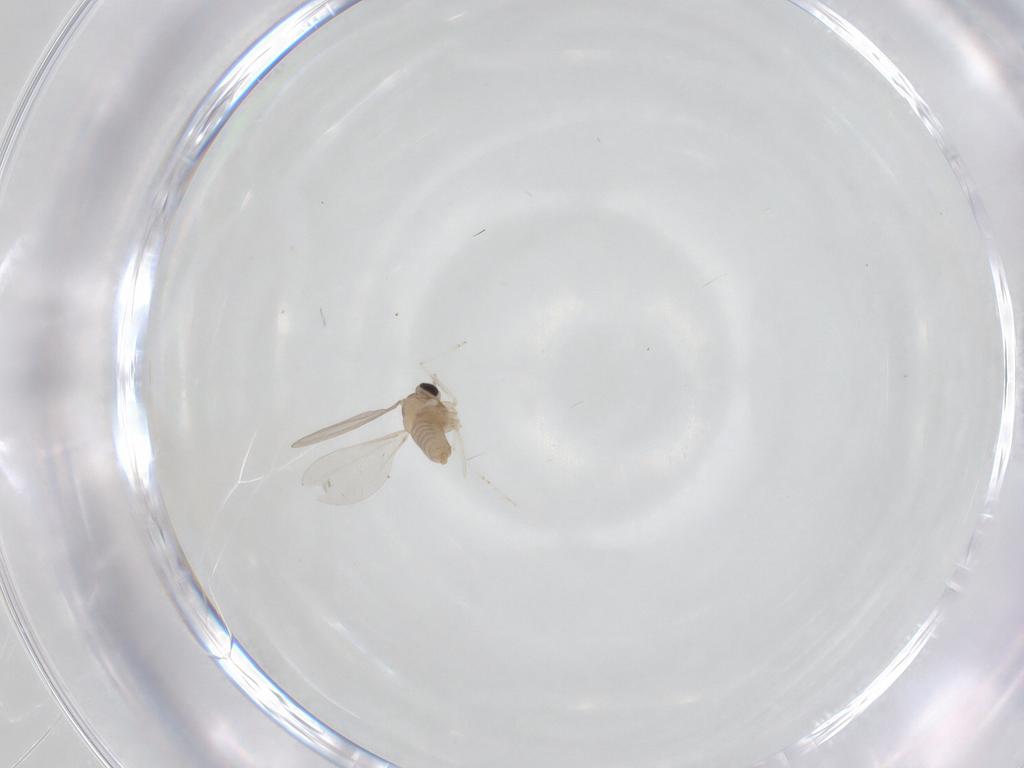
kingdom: Animalia
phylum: Arthropoda
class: Insecta
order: Diptera
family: Cecidomyiidae
